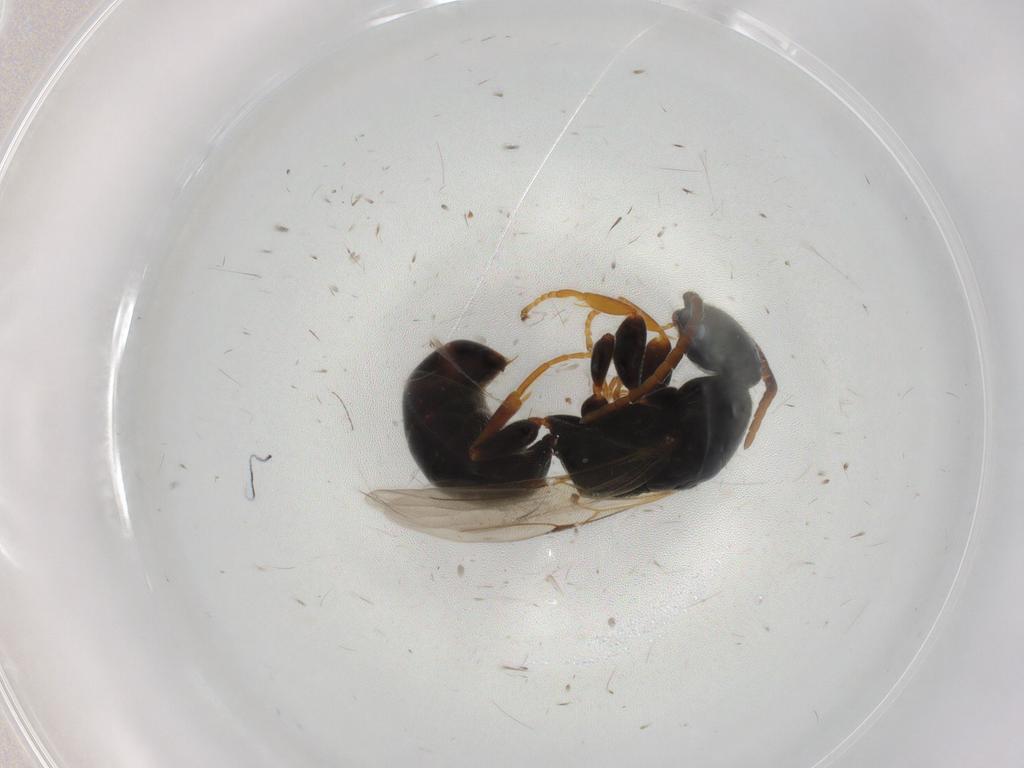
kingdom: Animalia
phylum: Arthropoda
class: Insecta
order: Hymenoptera
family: Bethylidae
